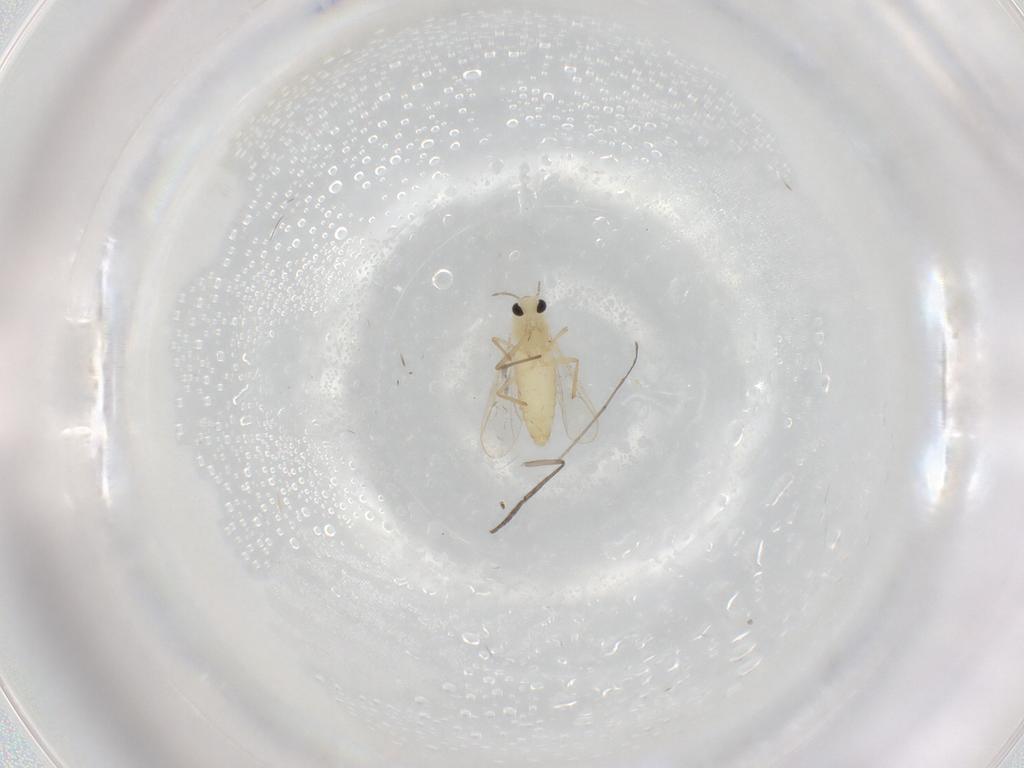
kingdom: Animalia
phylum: Arthropoda
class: Insecta
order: Diptera
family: Chironomidae
